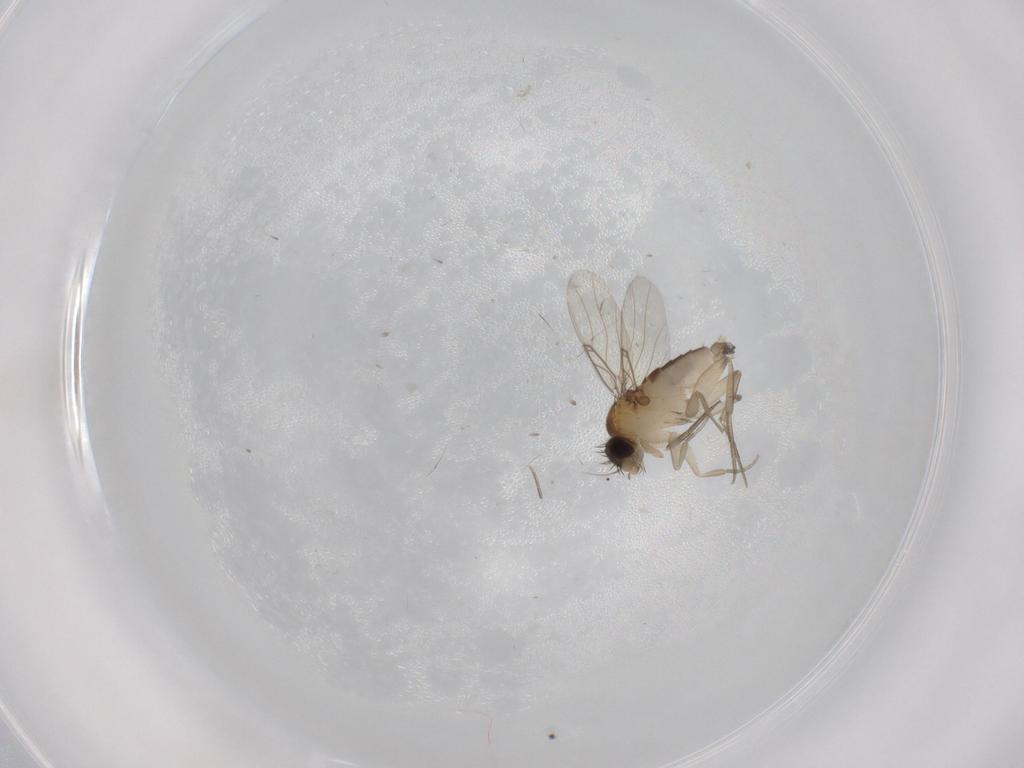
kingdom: Animalia
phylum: Arthropoda
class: Insecta
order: Diptera
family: Phoridae
